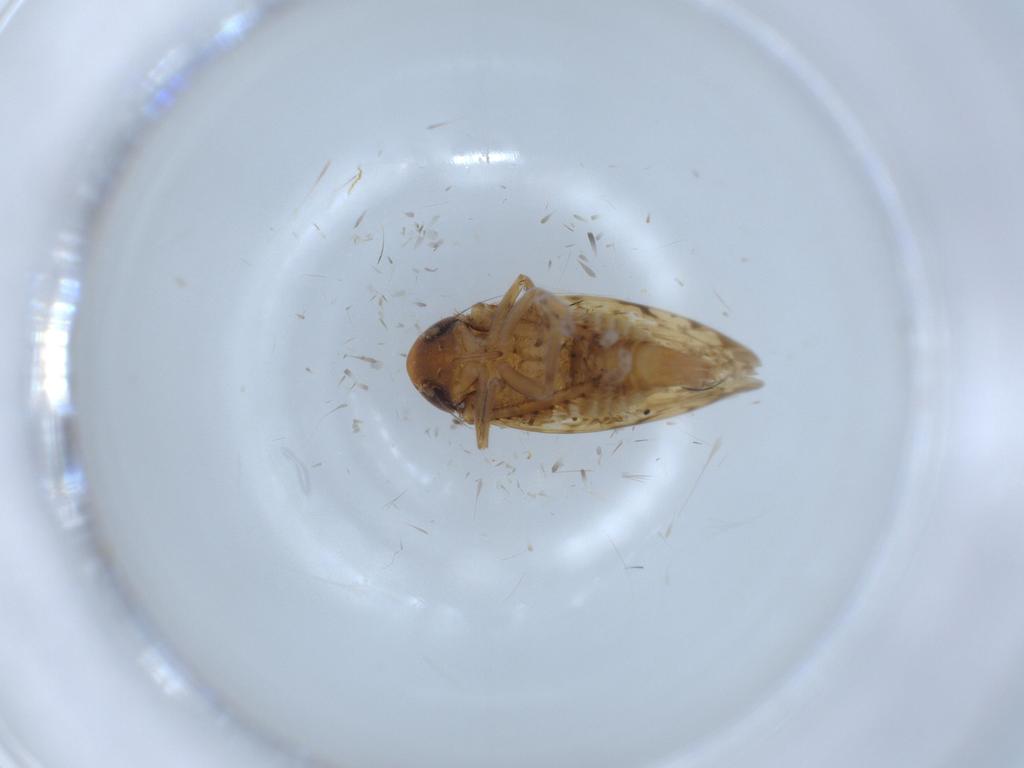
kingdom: Animalia
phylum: Arthropoda
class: Insecta
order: Hemiptera
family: Cicadellidae
